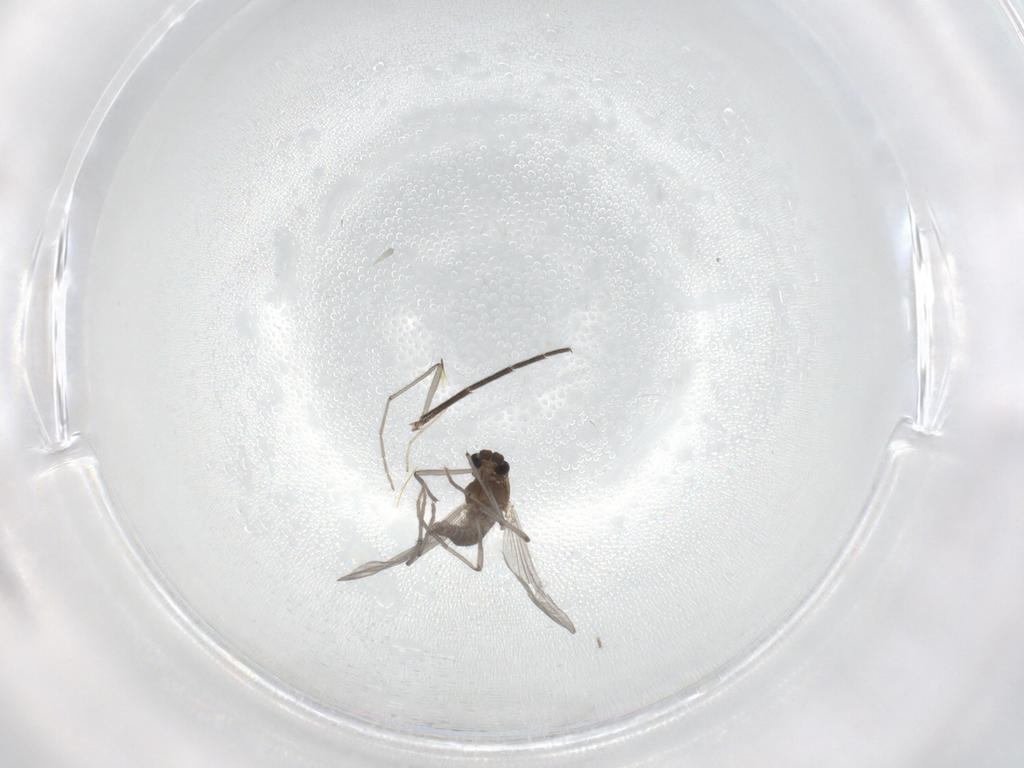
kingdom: Animalia
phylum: Arthropoda
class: Insecta
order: Diptera
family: Chironomidae
